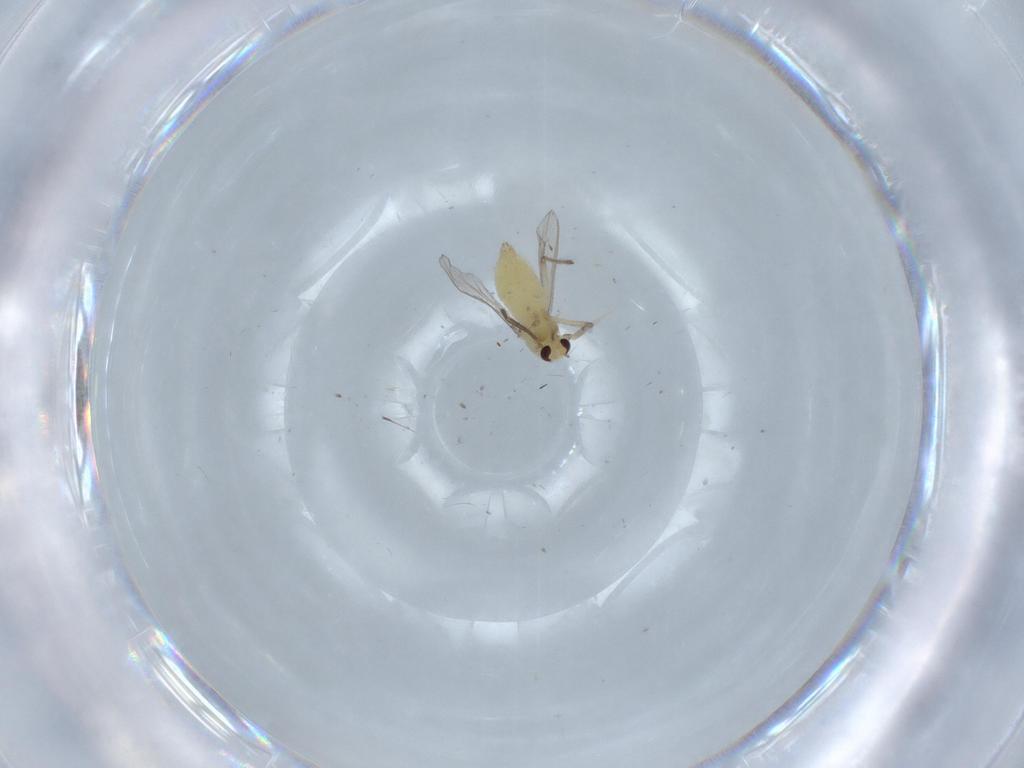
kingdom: Animalia
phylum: Arthropoda
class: Insecta
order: Diptera
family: Chironomidae
